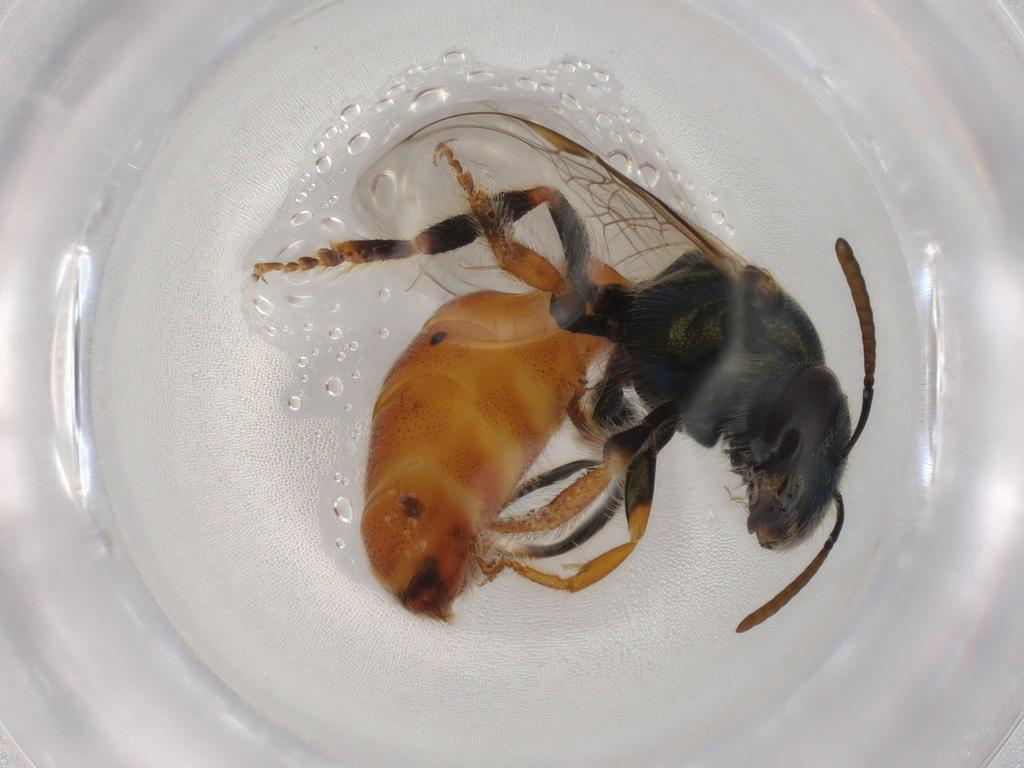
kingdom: Animalia
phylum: Arthropoda
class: Insecta
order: Hymenoptera
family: Halictidae
